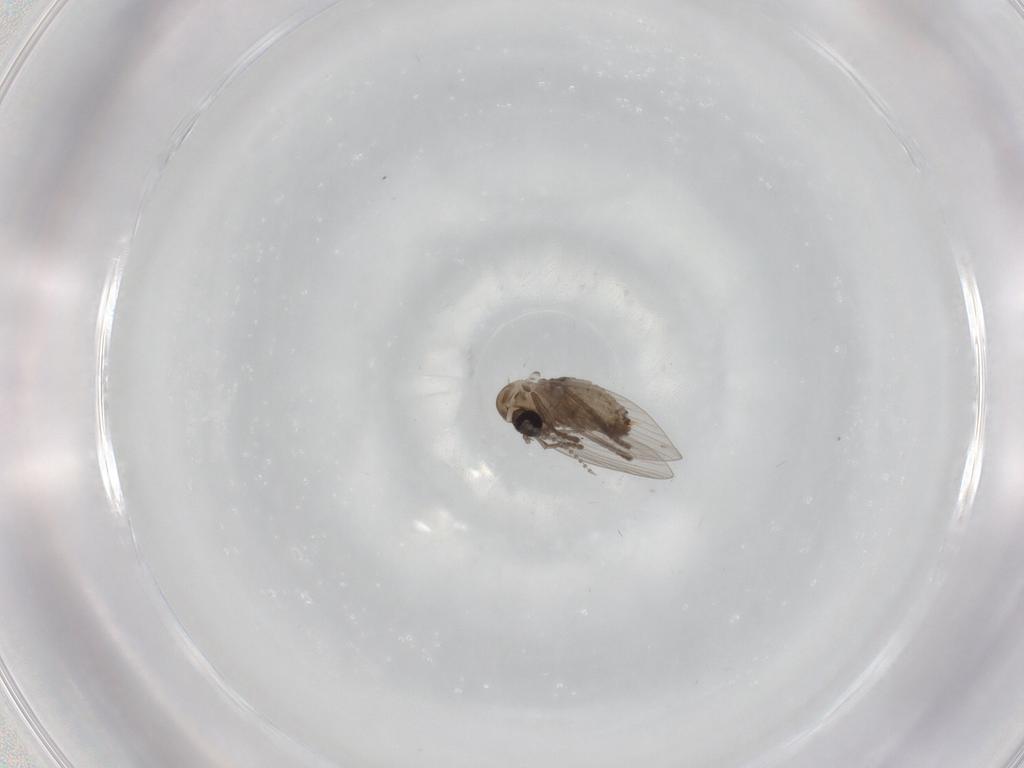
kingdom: Animalia
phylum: Arthropoda
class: Insecta
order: Diptera
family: Psychodidae
